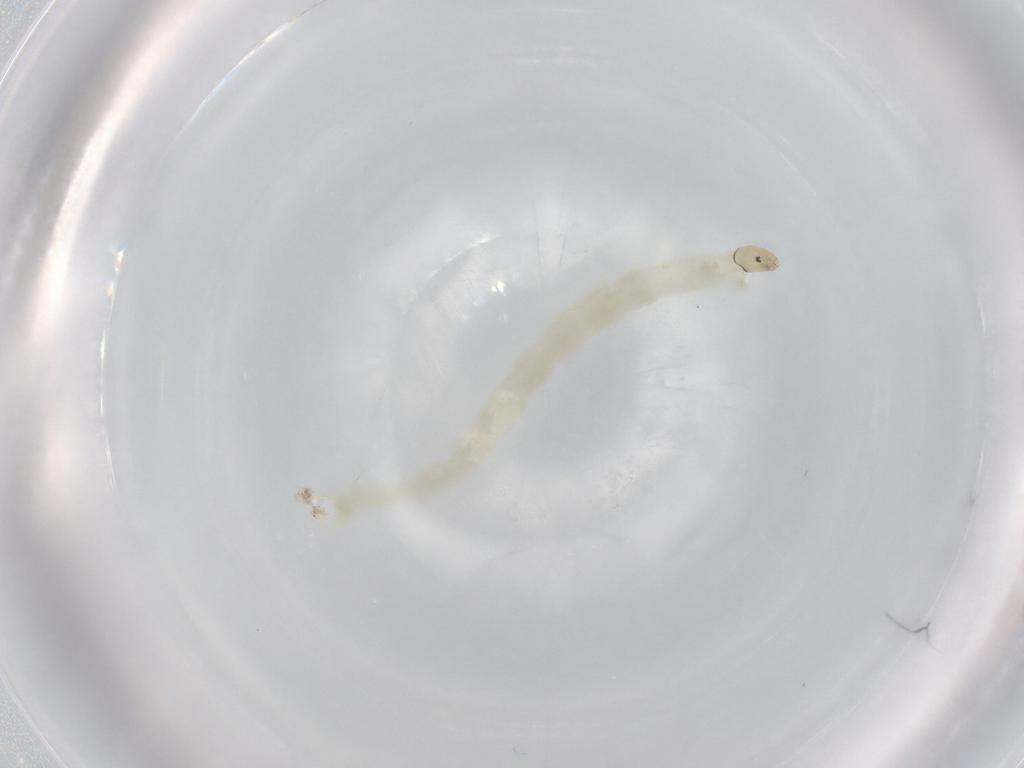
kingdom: Animalia
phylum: Arthropoda
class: Insecta
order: Diptera
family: Chironomidae
